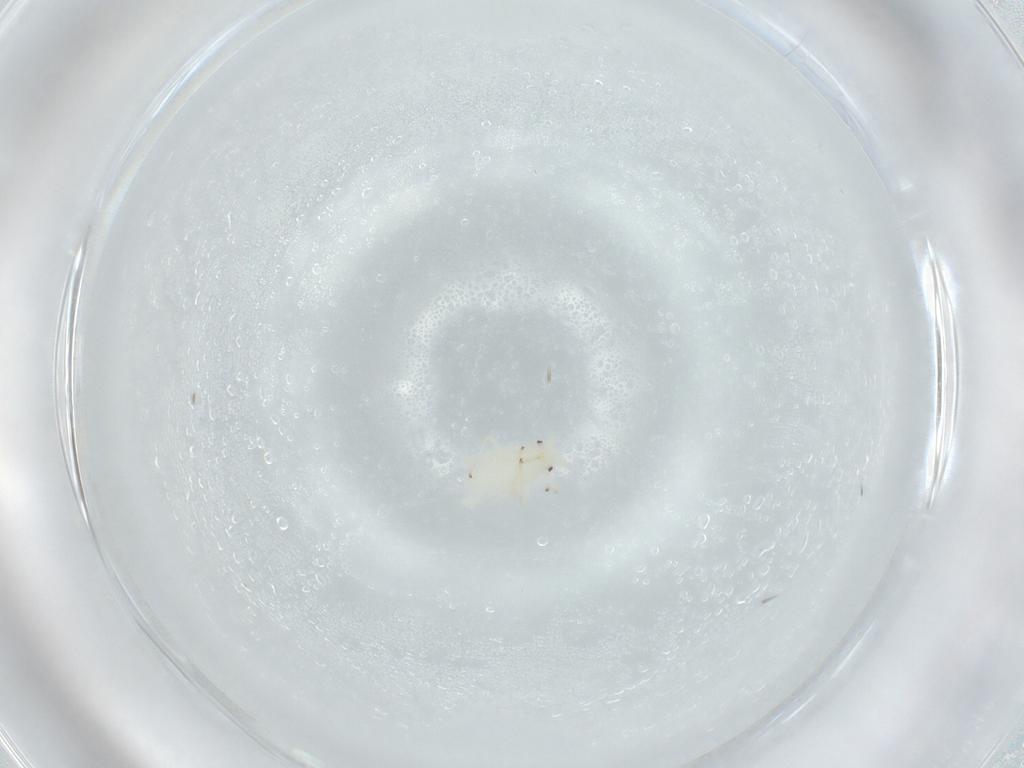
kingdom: Animalia
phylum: Arthropoda
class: Insecta
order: Hemiptera
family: Aphididae
